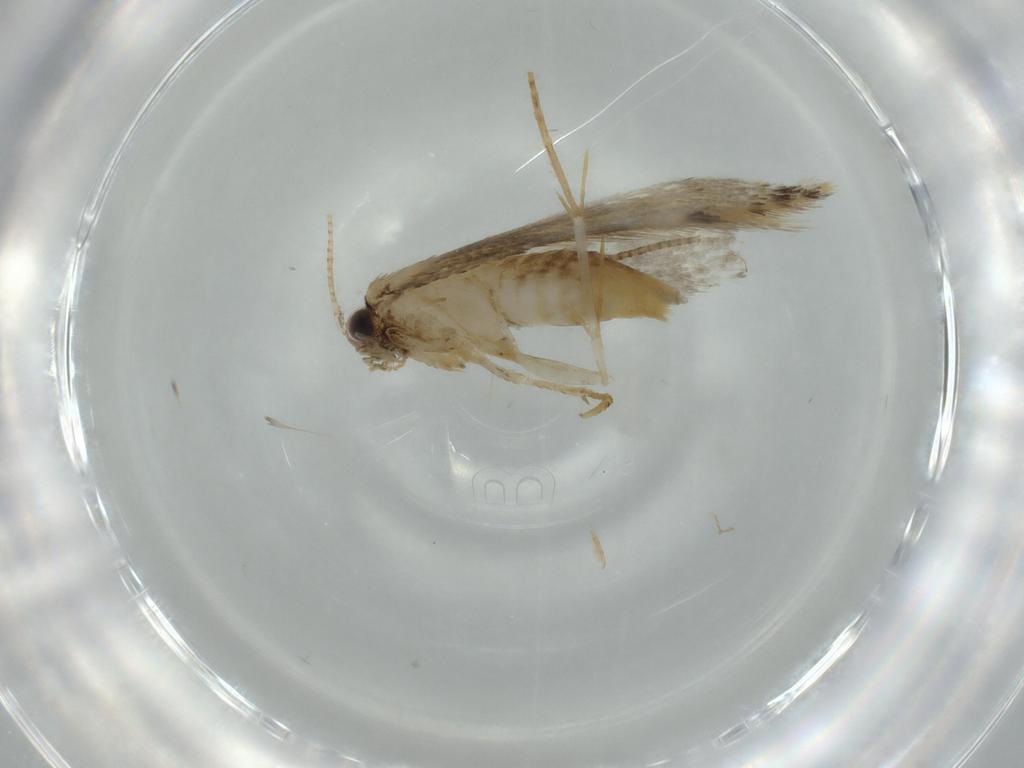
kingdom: Animalia
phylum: Arthropoda
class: Insecta
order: Lepidoptera
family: Tineidae
